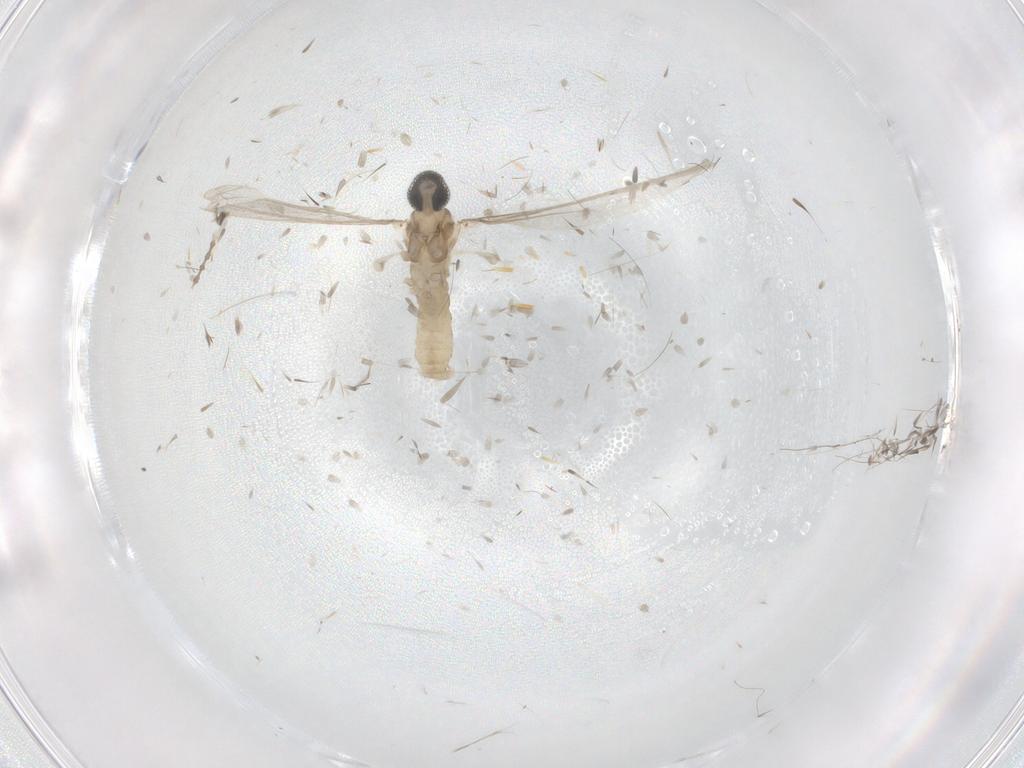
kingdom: Animalia
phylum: Arthropoda
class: Insecta
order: Diptera
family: Cecidomyiidae
